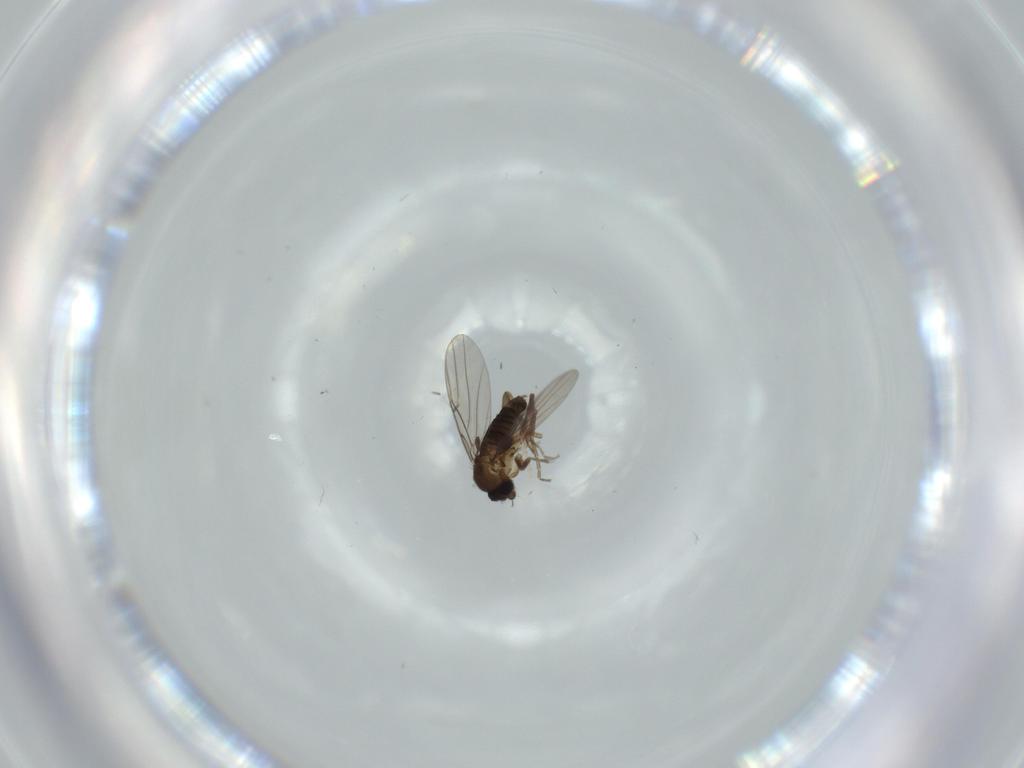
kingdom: Animalia
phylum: Arthropoda
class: Insecta
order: Diptera
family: Phoridae
